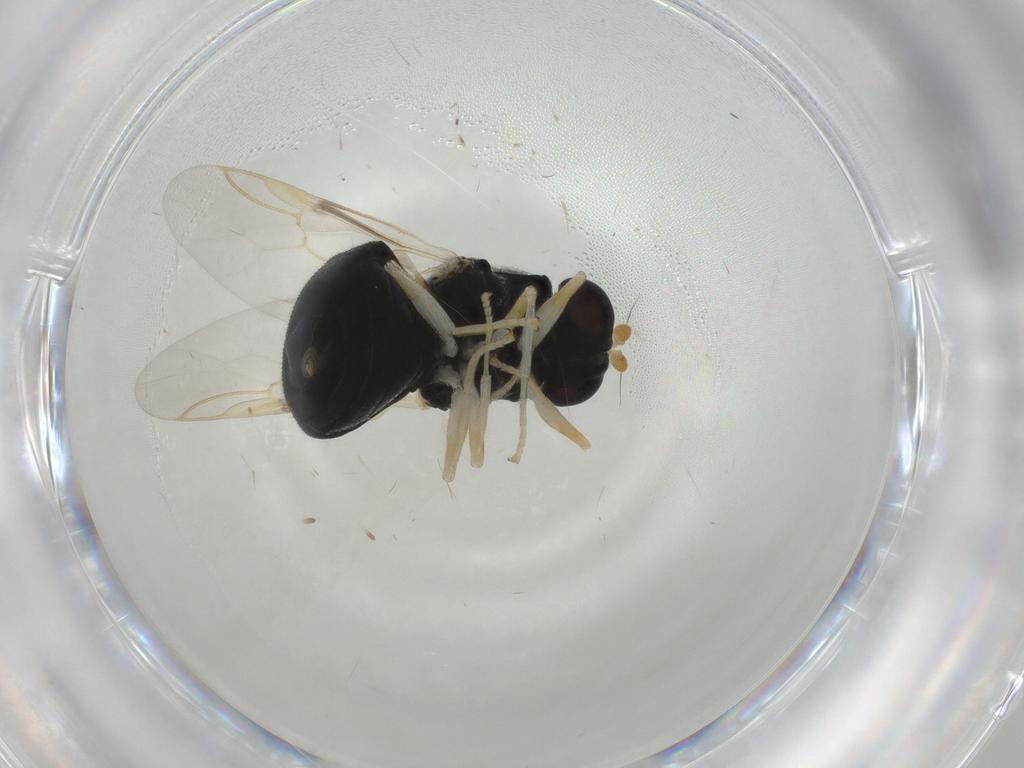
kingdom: Animalia
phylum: Arthropoda
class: Insecta
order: Diptera
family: Stratiomyidae
